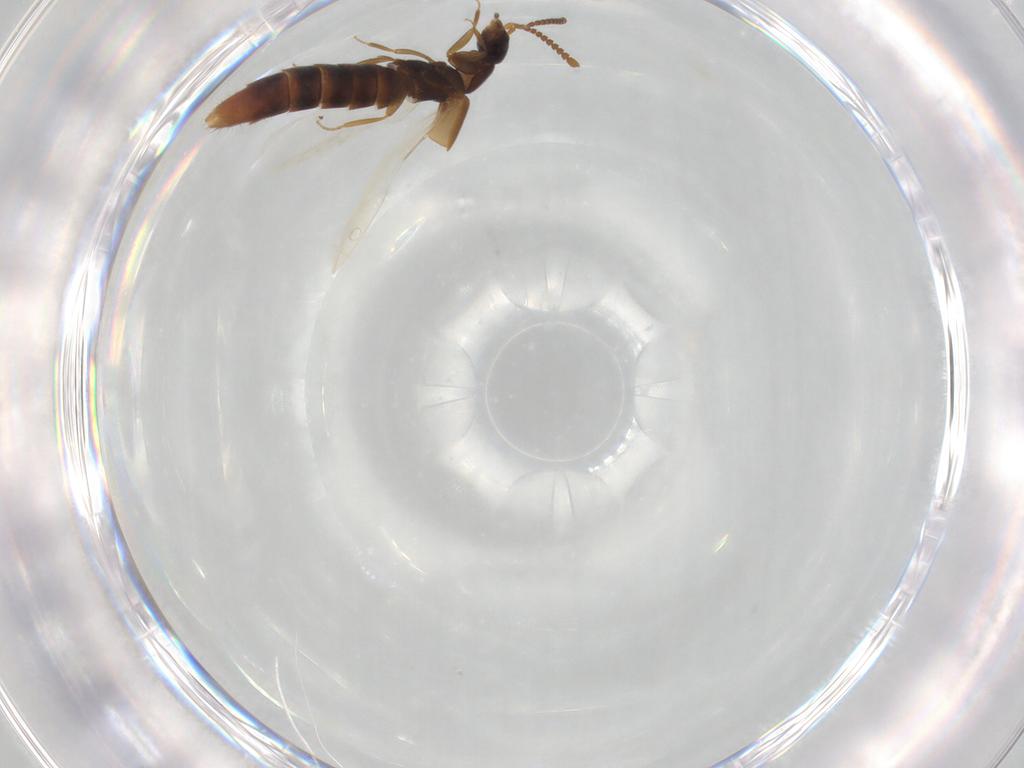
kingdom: Animalia
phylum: Arthropoda
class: Insecta
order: Coleoptera
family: Staphylinidae
